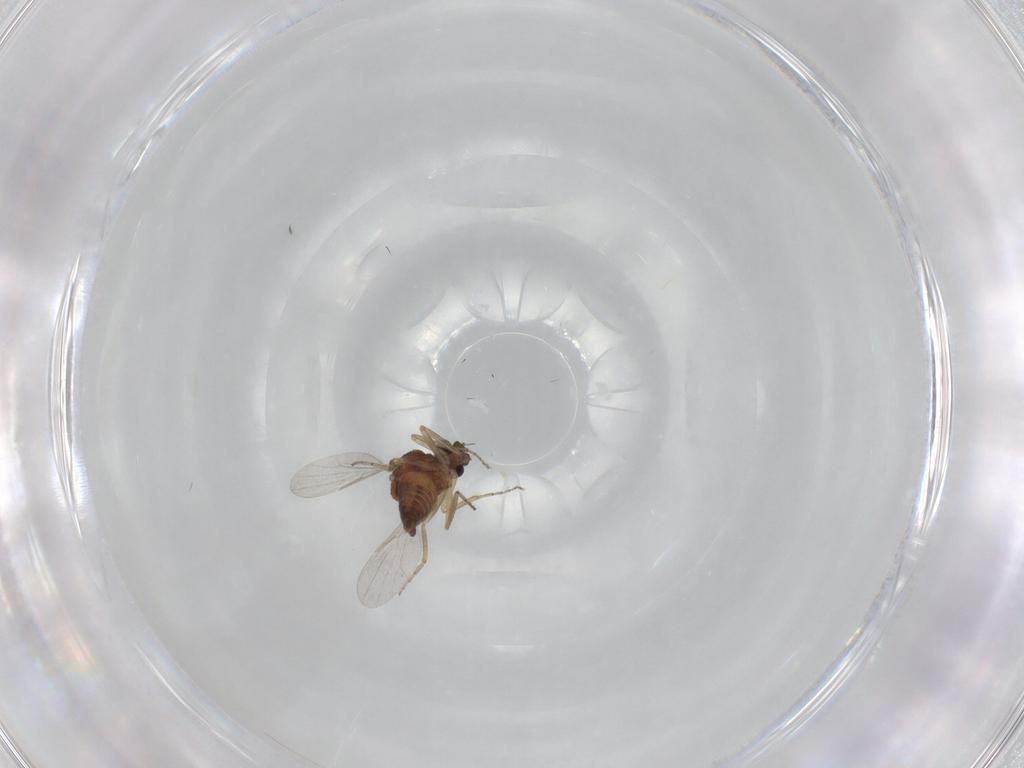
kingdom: Animalia
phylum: Arthropoda
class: Insecta
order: Diptera
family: Ceratopogonidae
